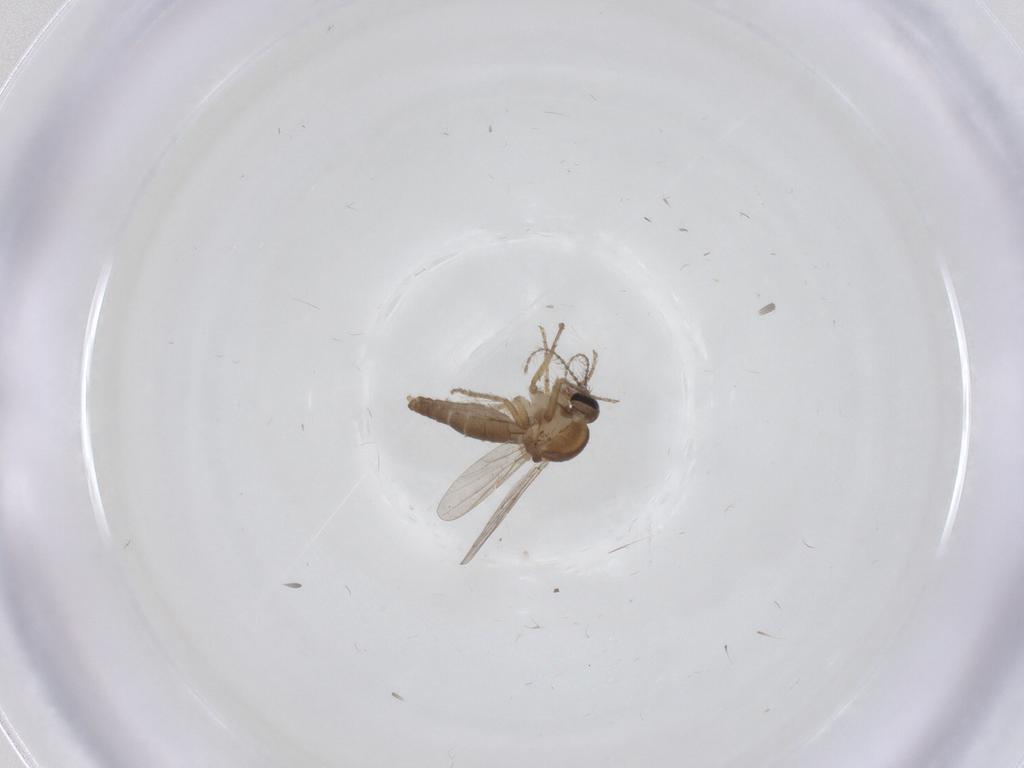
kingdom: Animalia
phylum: Arthropoda
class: Insecta
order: Diptera
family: Ceratopogonidae
